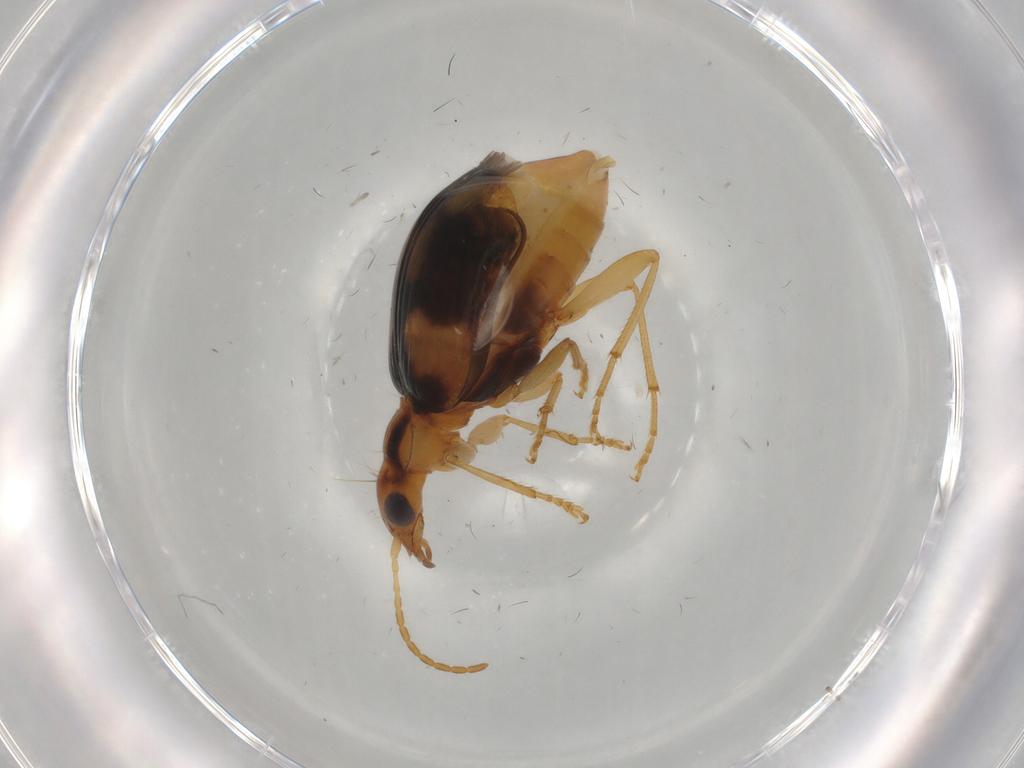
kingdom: Animalia
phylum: Arthropoda
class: Insecta
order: Coleoptera
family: Carabidae
